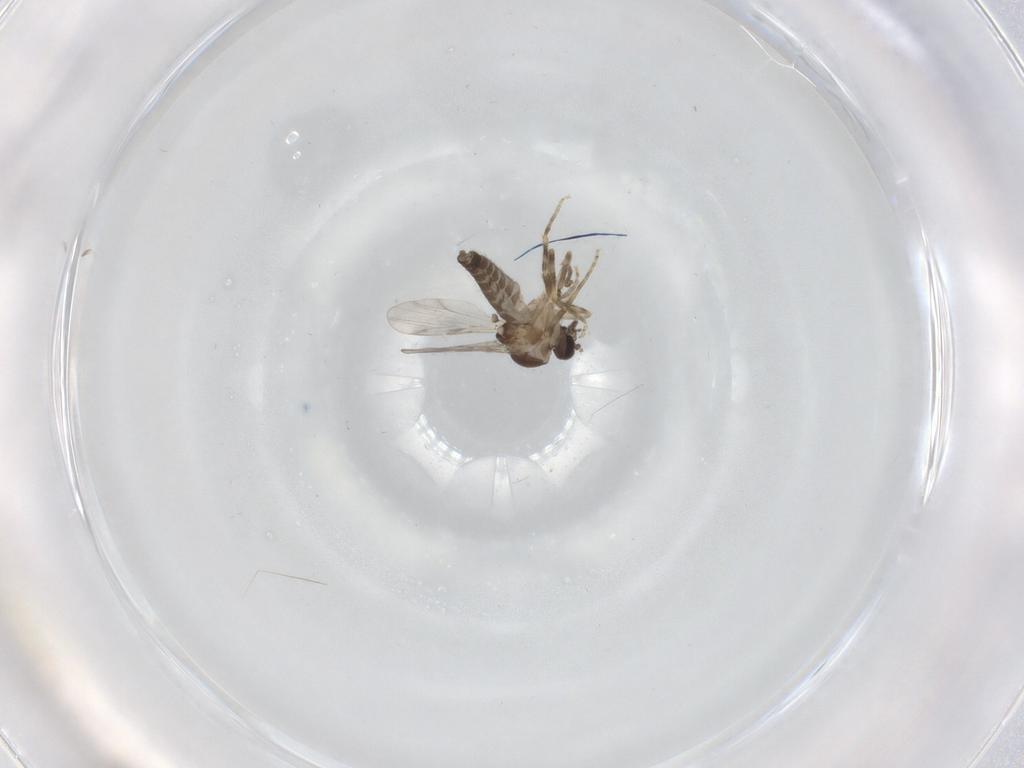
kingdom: Animalia
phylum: Arthropoda
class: Insecta
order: Diptera
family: Ceratopogonidae
